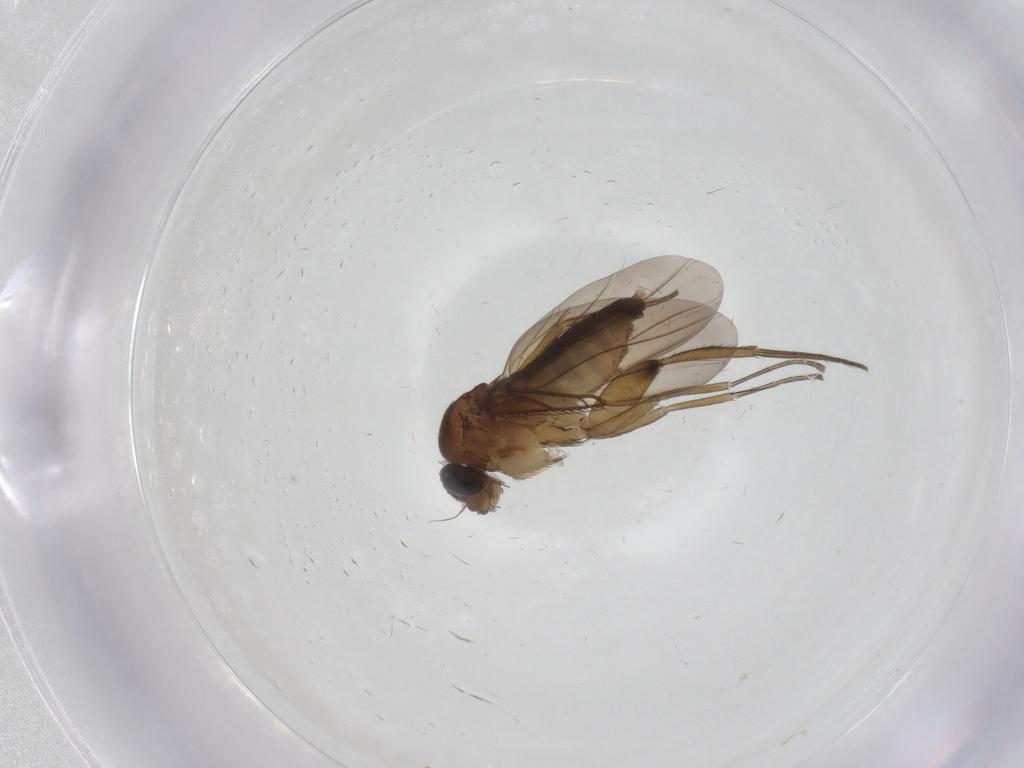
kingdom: Animalia
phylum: Arthropoda
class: Insecta
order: Diptera
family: Phoridae
